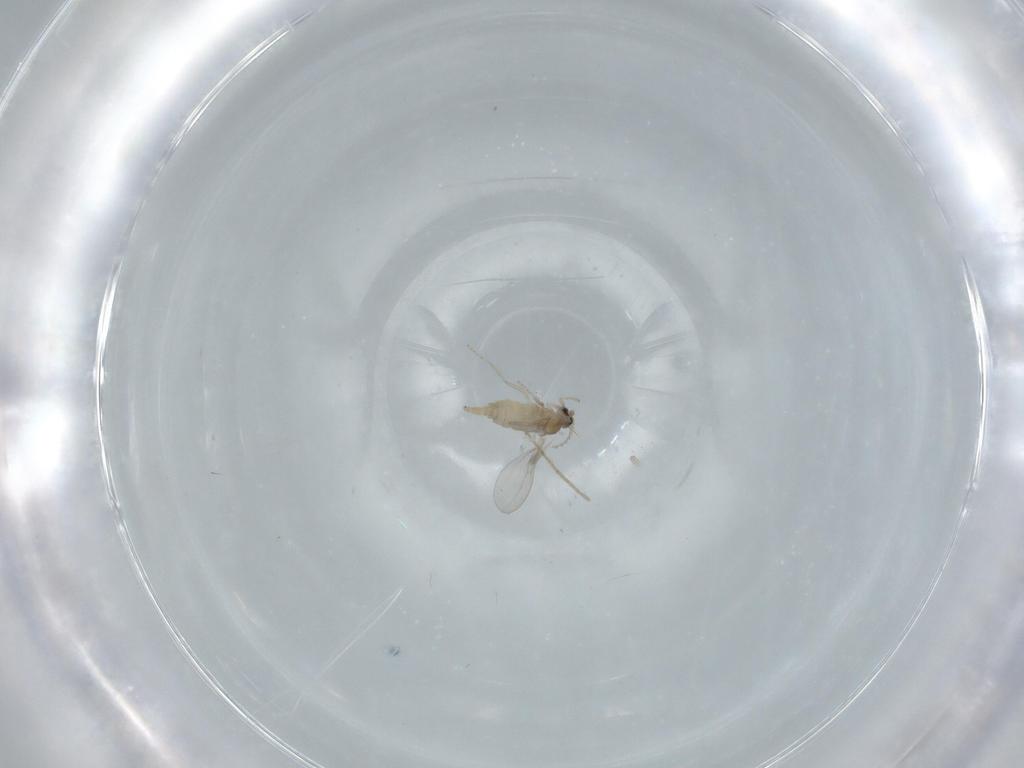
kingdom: Animalia
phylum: Arthropoda
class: Insecta
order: Diptera
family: Cecidomyiidae
